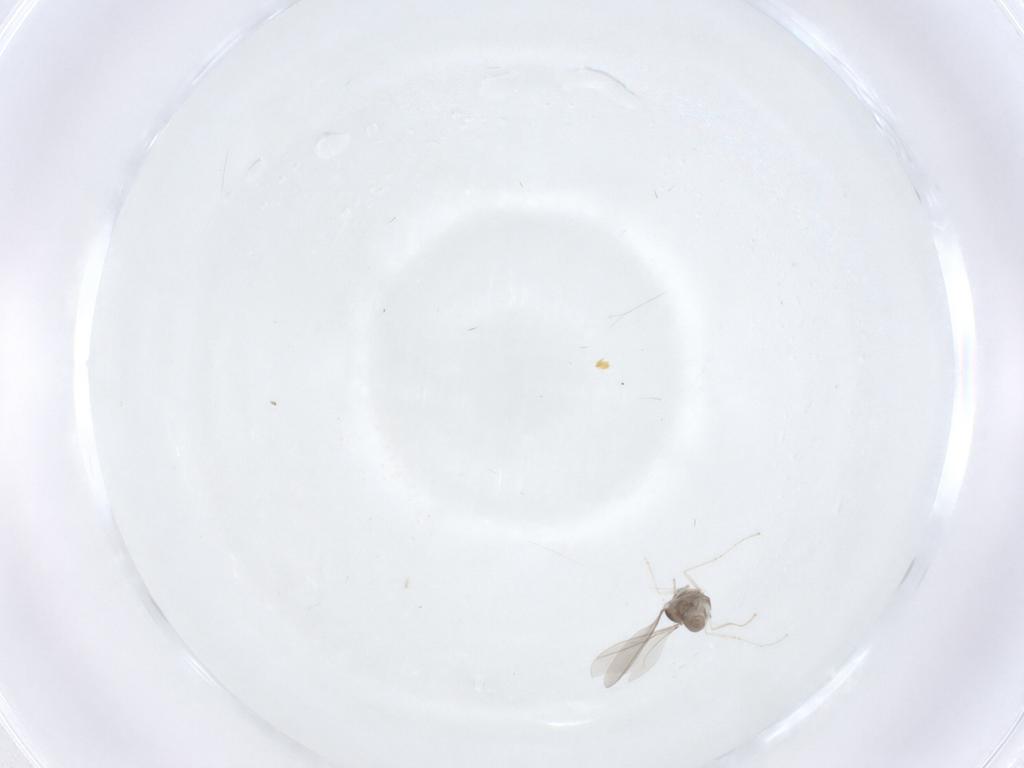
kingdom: Animalia
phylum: Arthropoda
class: Insecta
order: Diptera
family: Cecidomyiidae
